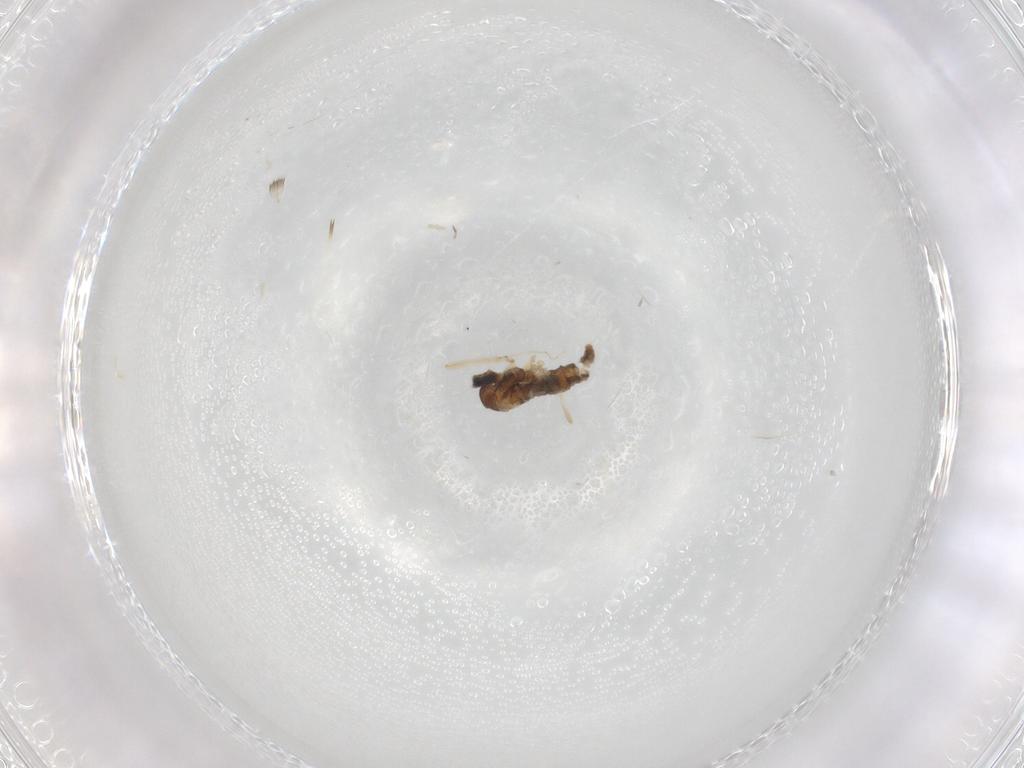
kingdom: Animalia
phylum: Arthropoda
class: Insecta
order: Diptera
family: Cecidomyiidae
